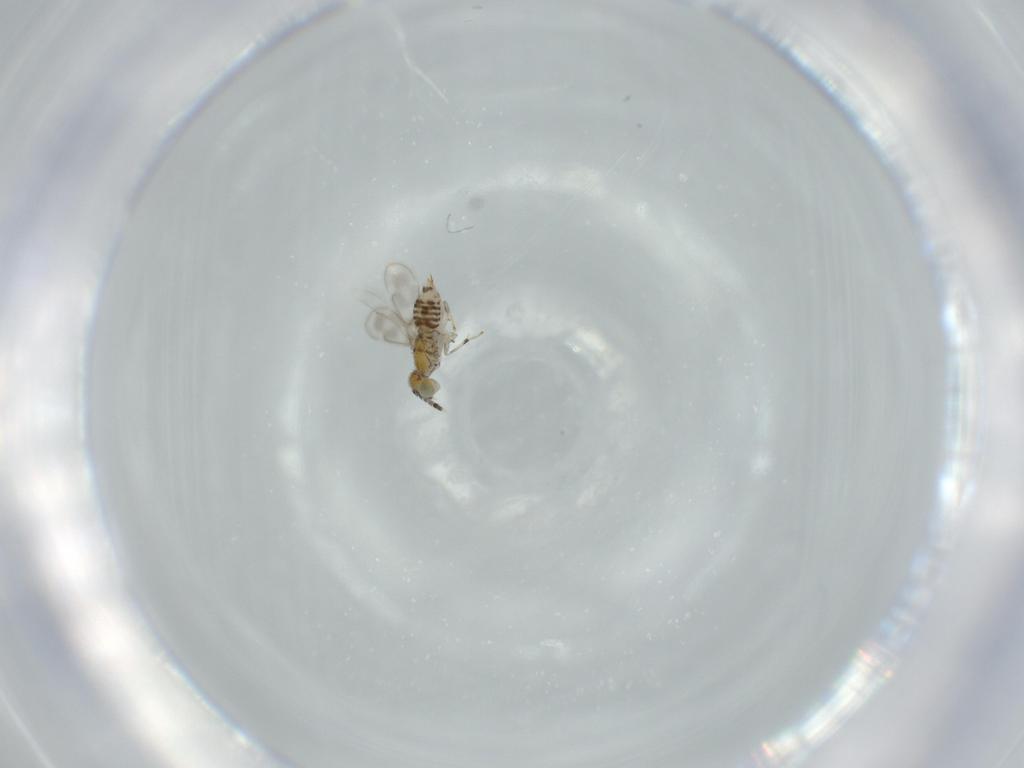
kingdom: Animalia
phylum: Arthropoda
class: Insecta
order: Hymenoptera
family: Aphelinidae
